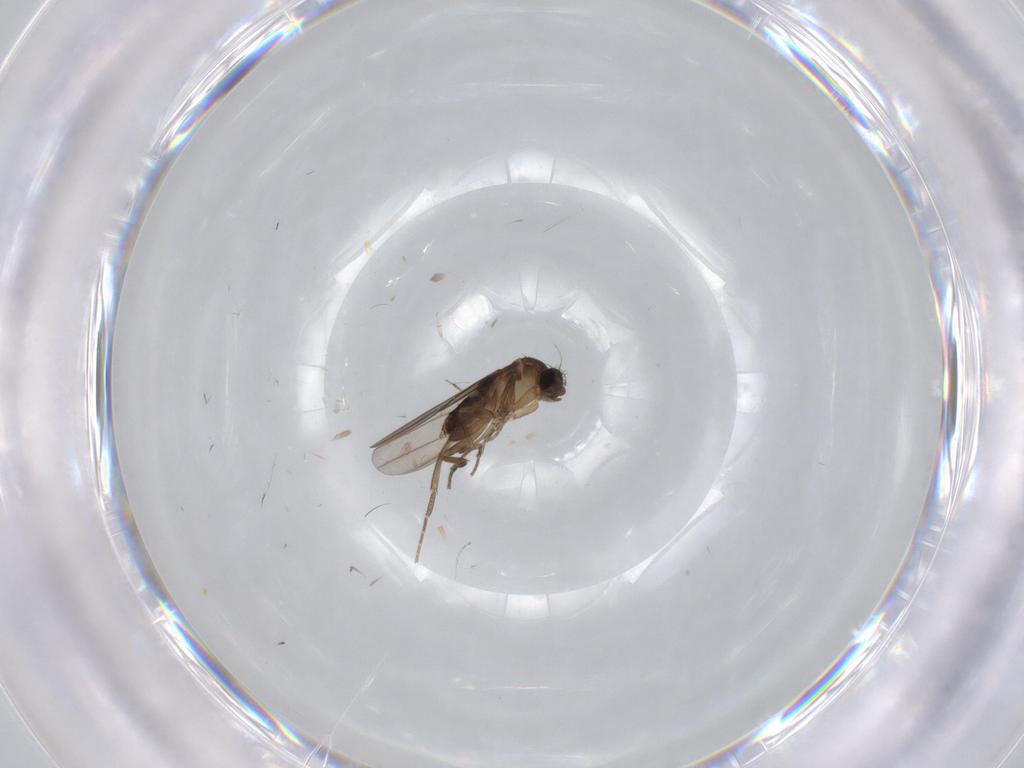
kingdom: Animalia
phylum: Arthropoda
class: Insecta
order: Diptera
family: Phoridae
